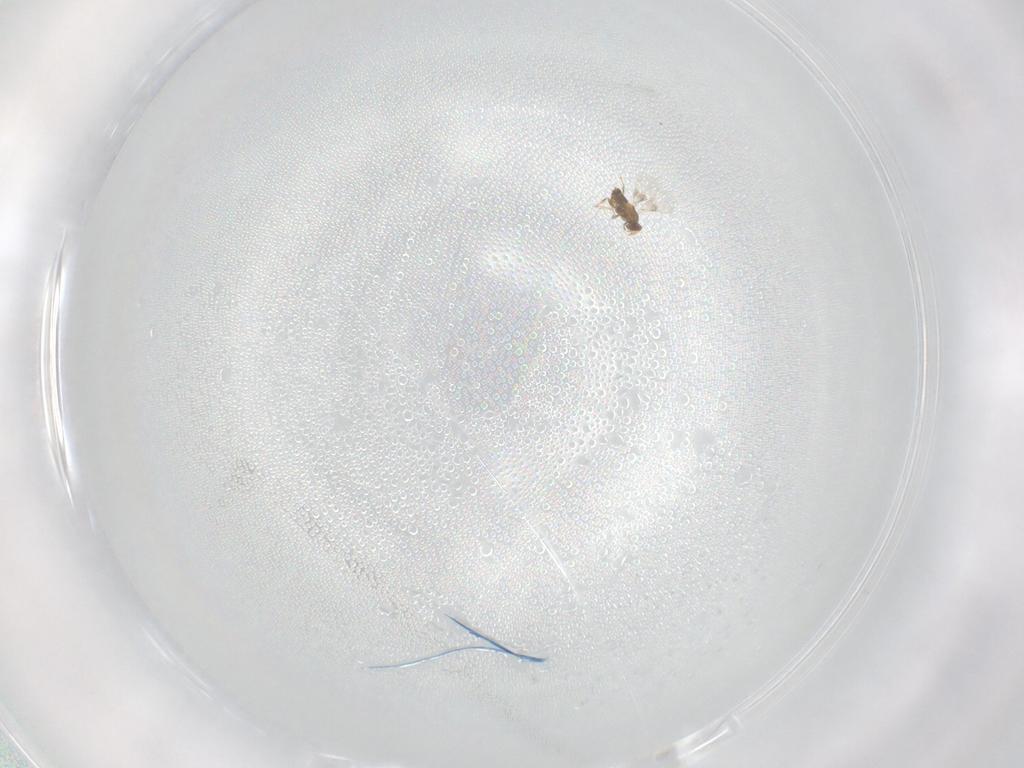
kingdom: Animalia
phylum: Arthropoda
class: Insecta
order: Hymenoptera
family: Trichogrammatidae
